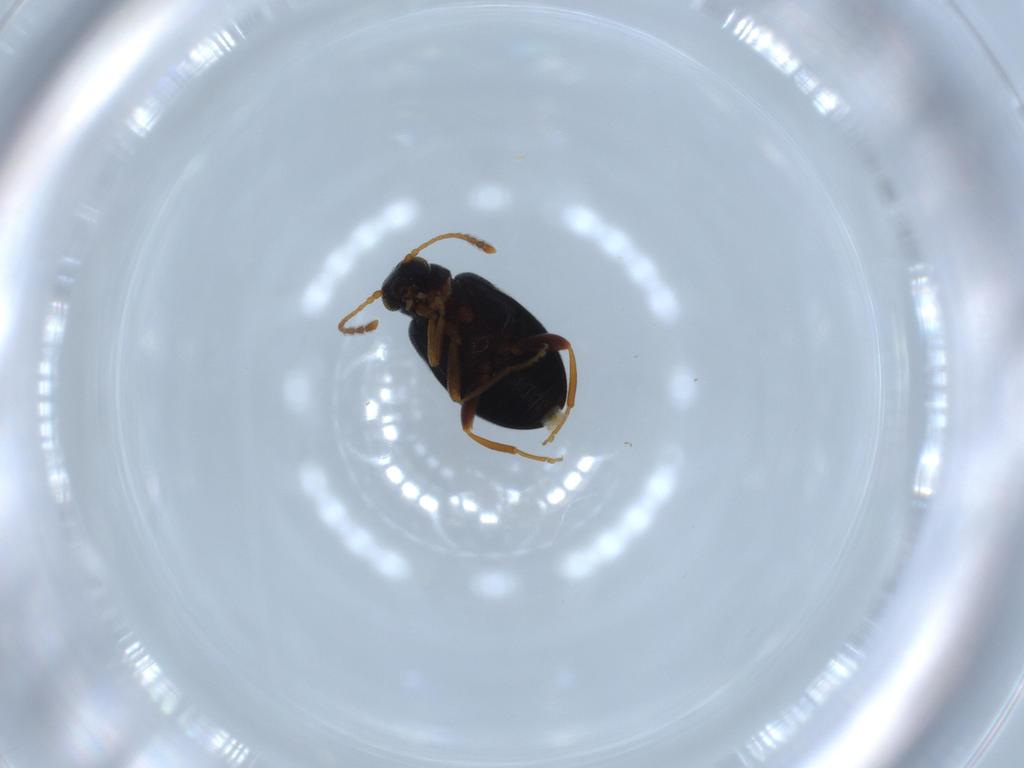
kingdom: Animalia
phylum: Arthropoda
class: Insecta
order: Coleoptera
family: Aderidae
